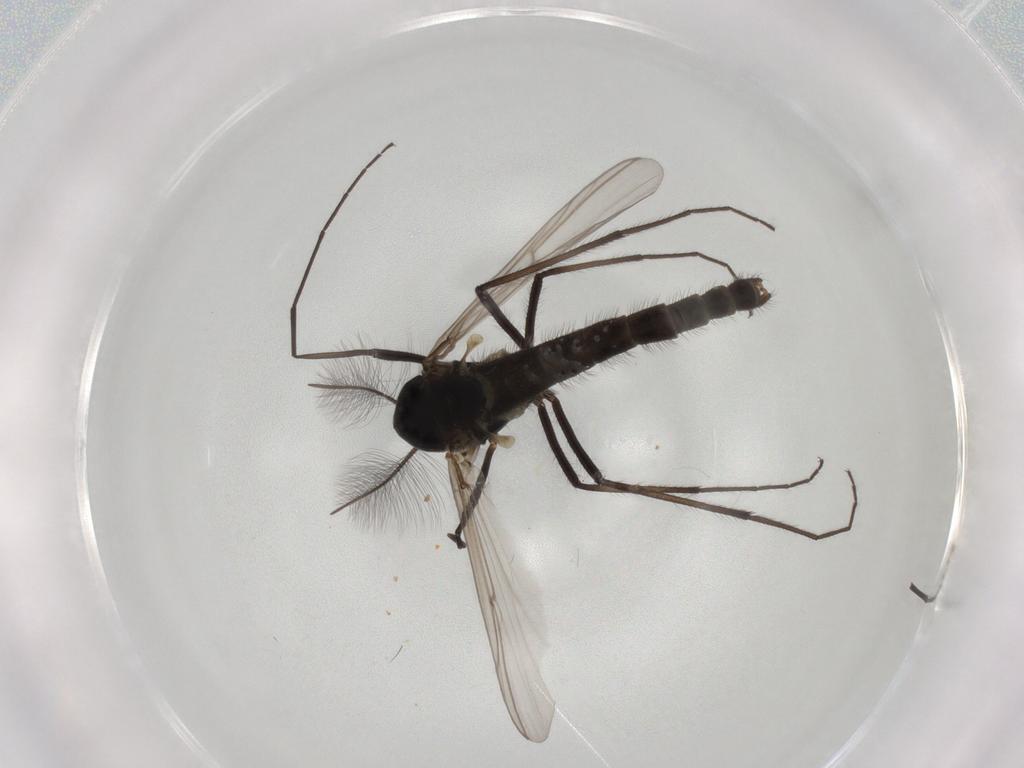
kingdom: Animalia
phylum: Arthropoda
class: Insecta
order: Diptera
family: Chironomidae
